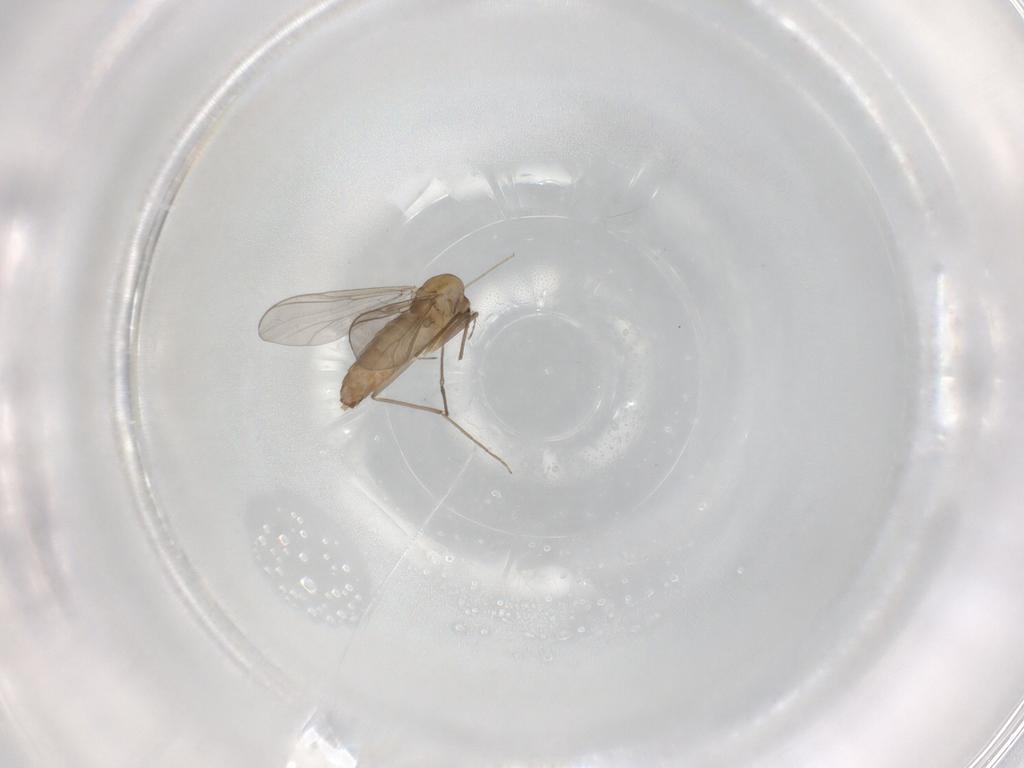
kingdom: Animalia
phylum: Arthropoda
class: Insecta
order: Diptera
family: Chironomidae
